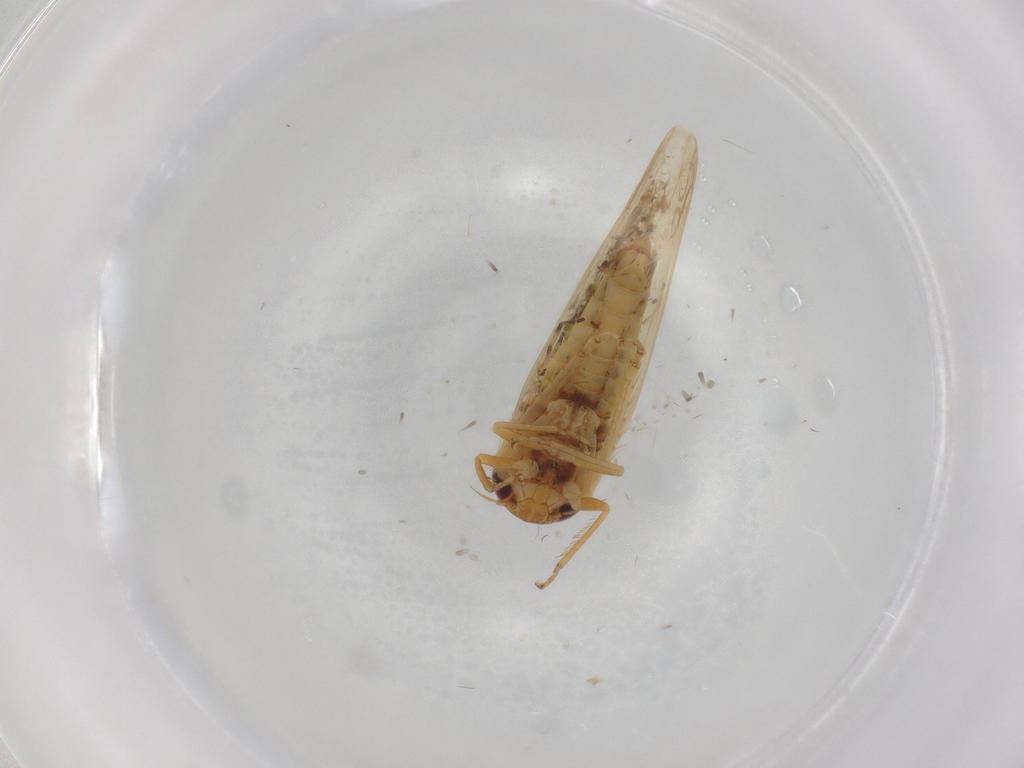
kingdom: Animalia
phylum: Arthropoda
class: Insecta
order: Hemiptera
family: Cicadellidae
